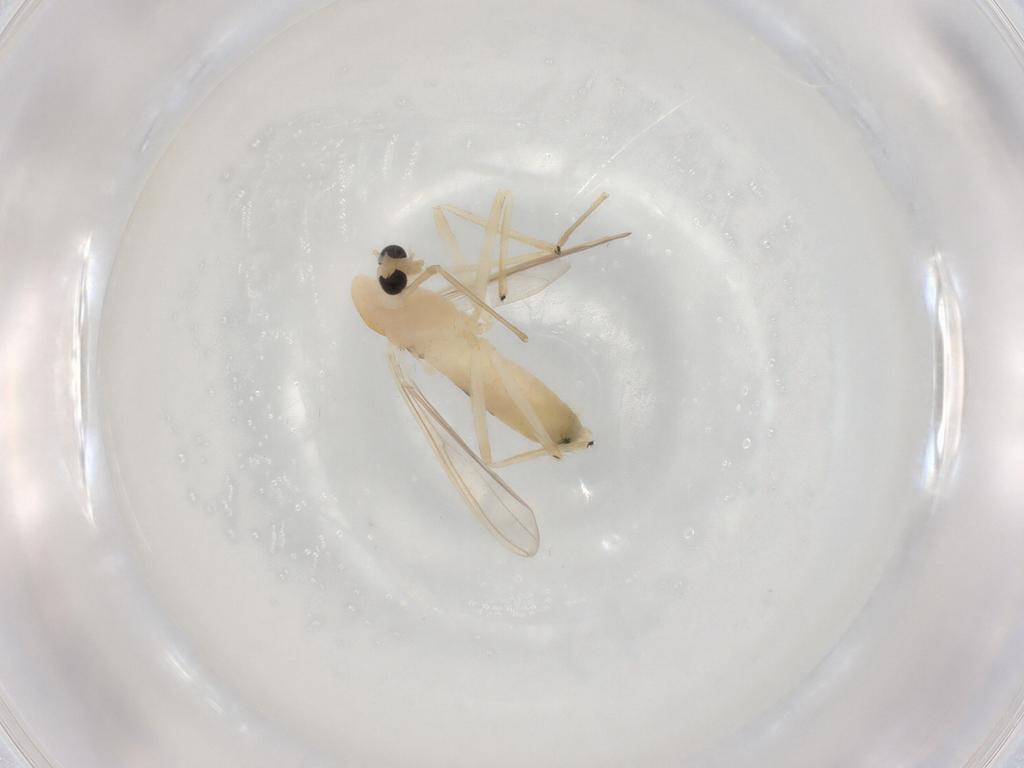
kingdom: Animalia
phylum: Arthropoda
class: Insecta
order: Diptera
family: Chironomidae
